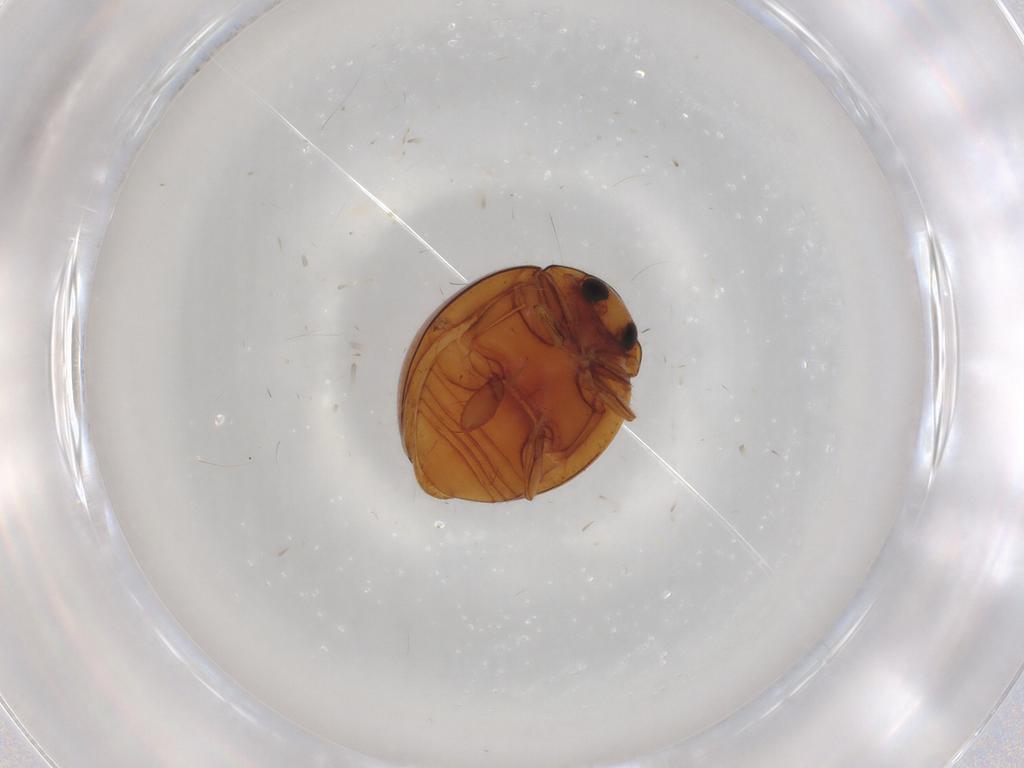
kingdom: Animalia
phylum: Arthropoda
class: Insecta
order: Coleoptera
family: Coccinellidae
